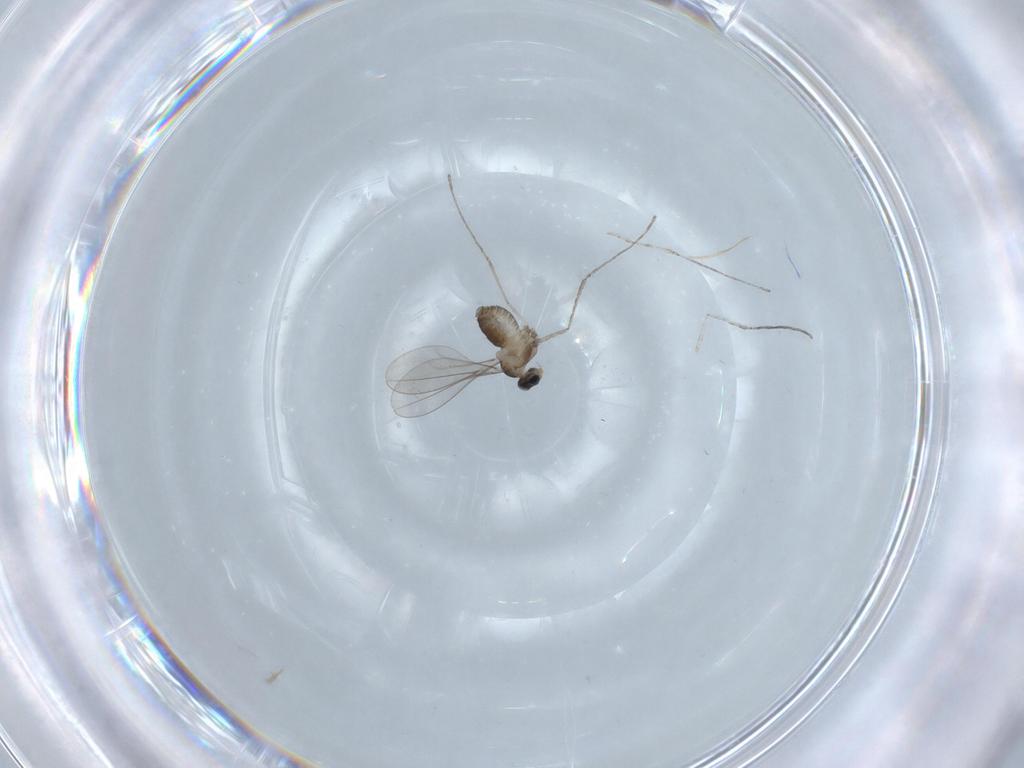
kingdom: Animalia
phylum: Arthropoda
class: Insecta
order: Diptera
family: Cecidomyiidae
